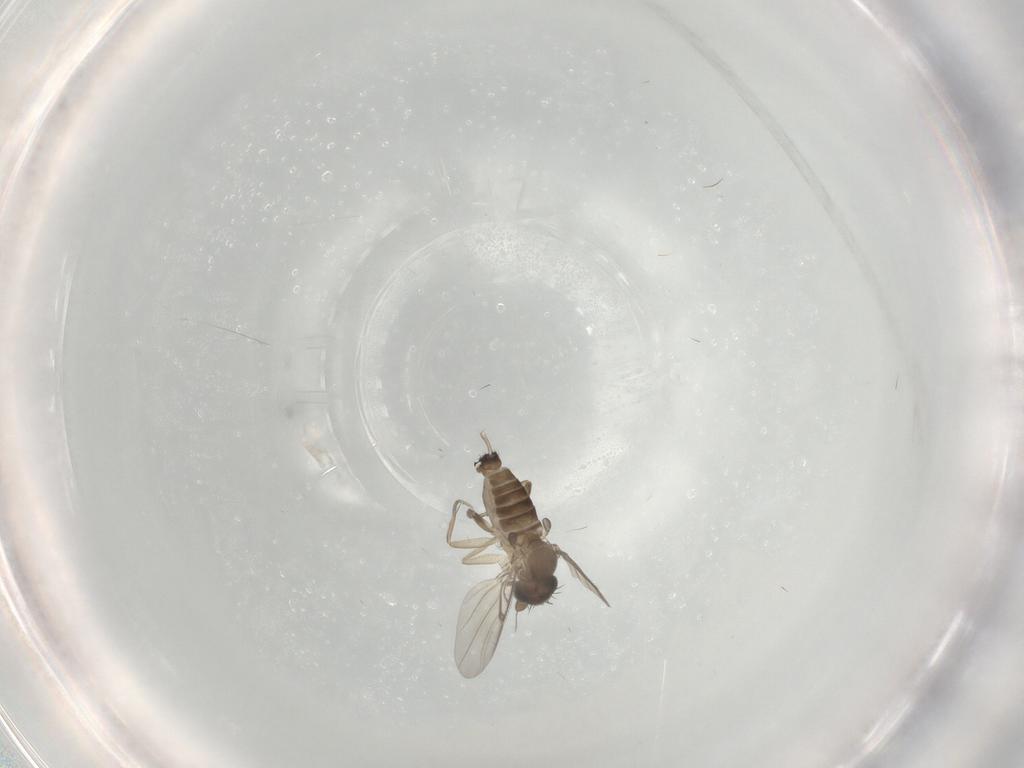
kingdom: Animalia
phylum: Arthropoda
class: Insecta
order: Diptera
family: Phoridae
